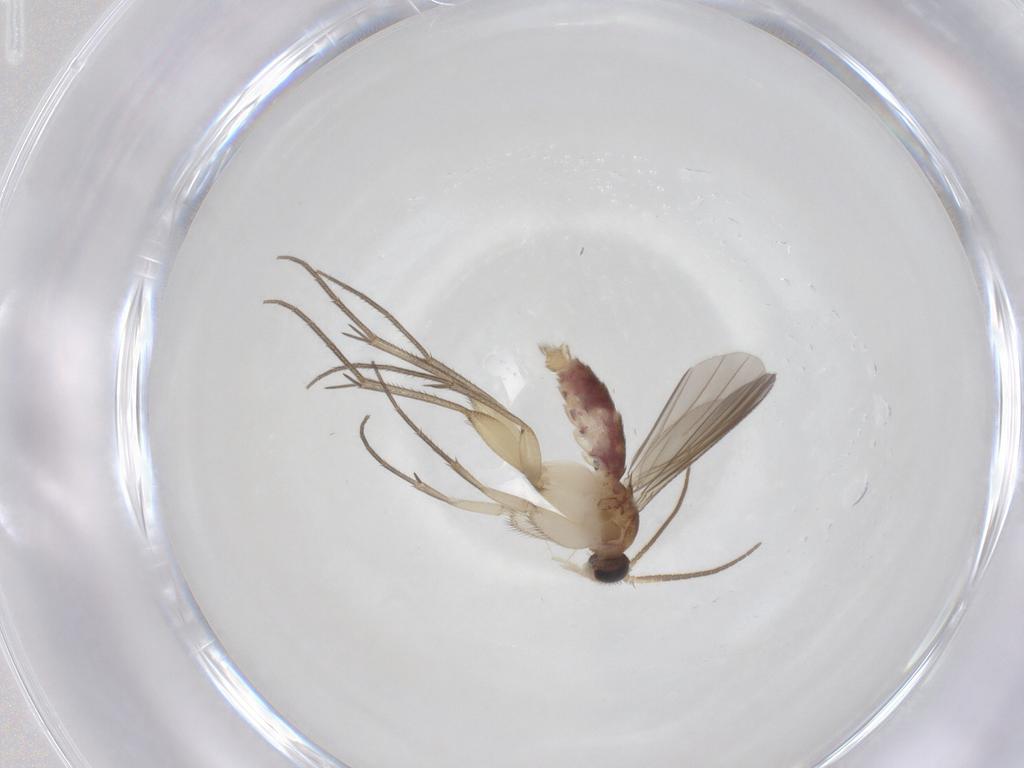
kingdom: Animalia
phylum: Arthropoda
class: Insecta
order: Diptera
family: Mycetophilidae
